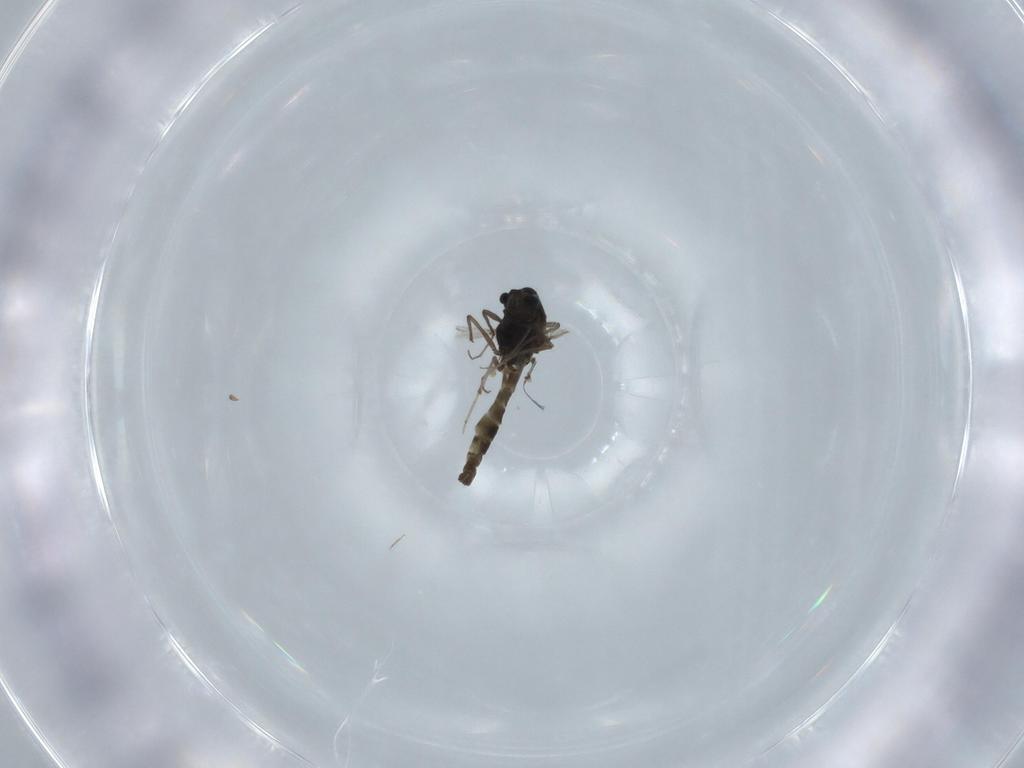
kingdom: Animalia
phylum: Arthropoda
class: Insecta
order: Diptera
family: Chironomidae
